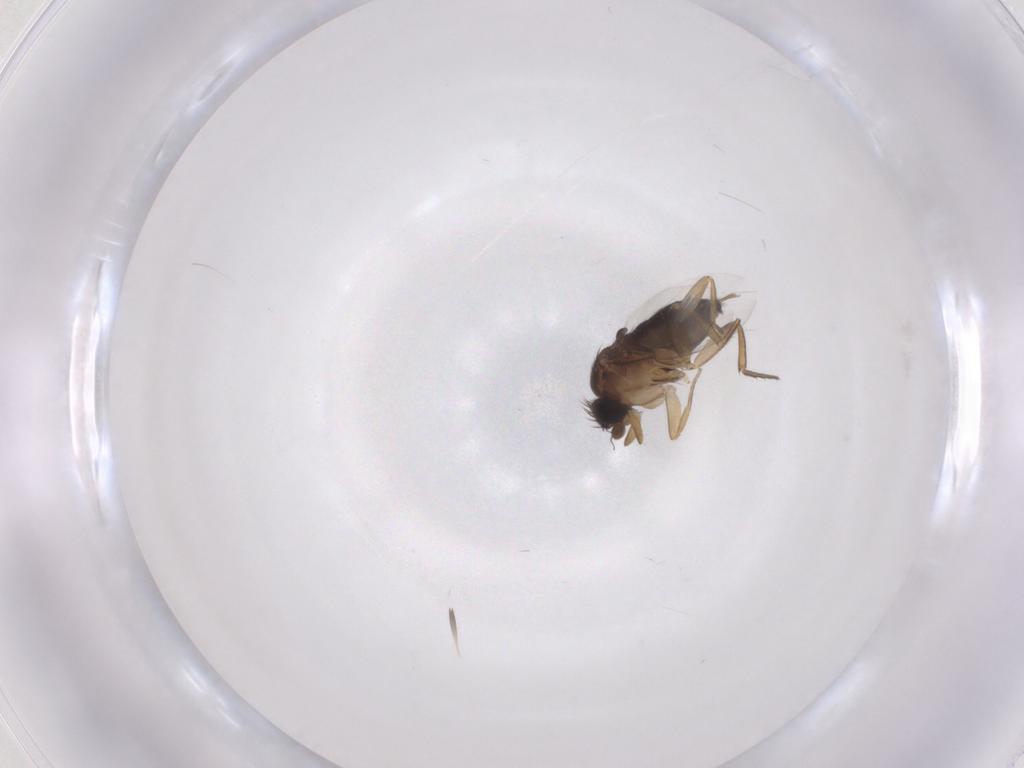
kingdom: Animalia
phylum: Arthropoda
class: Insecta
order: Diptera
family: Phoridae
